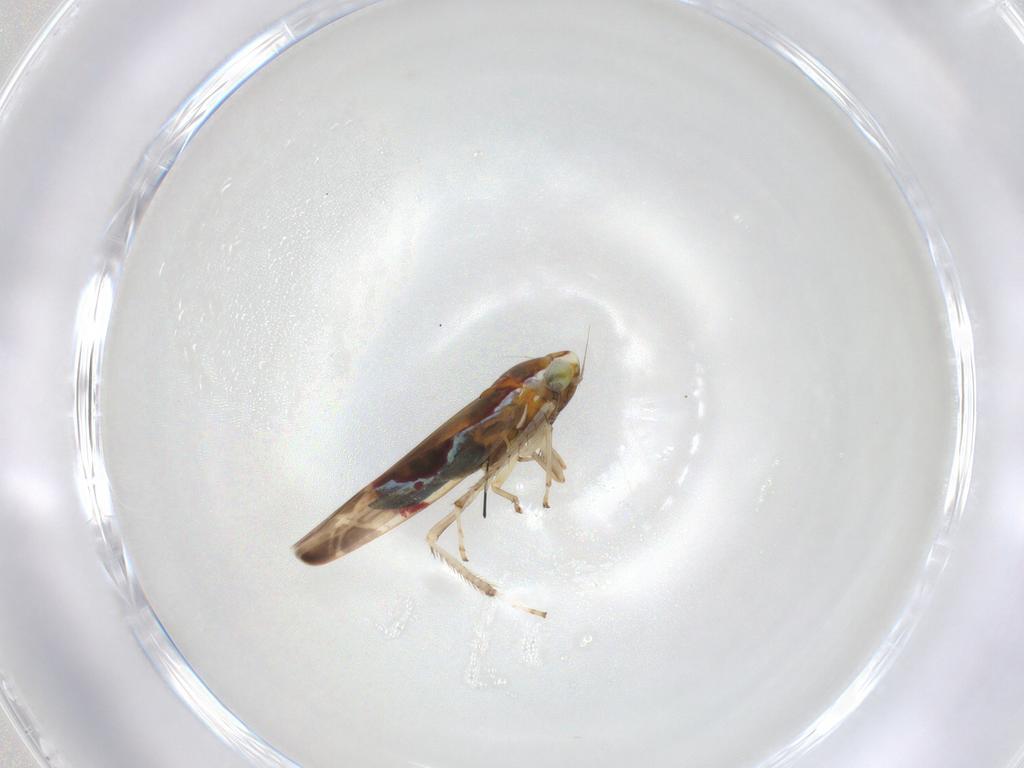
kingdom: Animalia
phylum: Arthropoda
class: Insecta
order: Hemiptera
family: Cicadellidae
